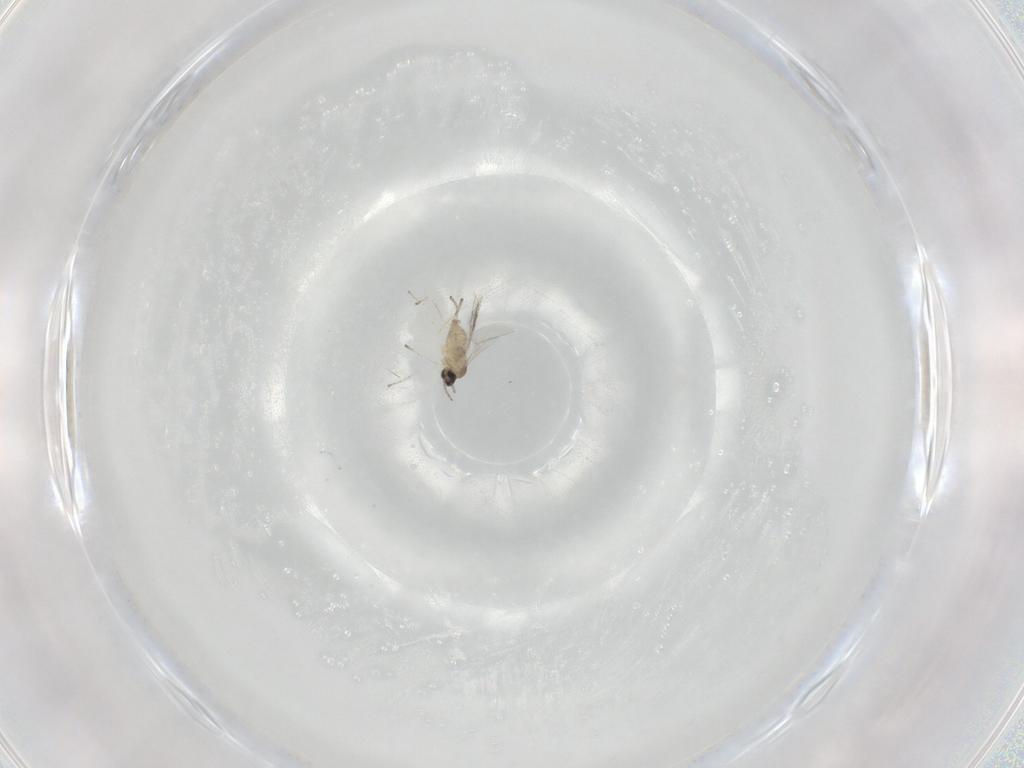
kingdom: Animalia
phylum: Arthropoda
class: Insecta
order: Diptera
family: Cecidomyiidae
